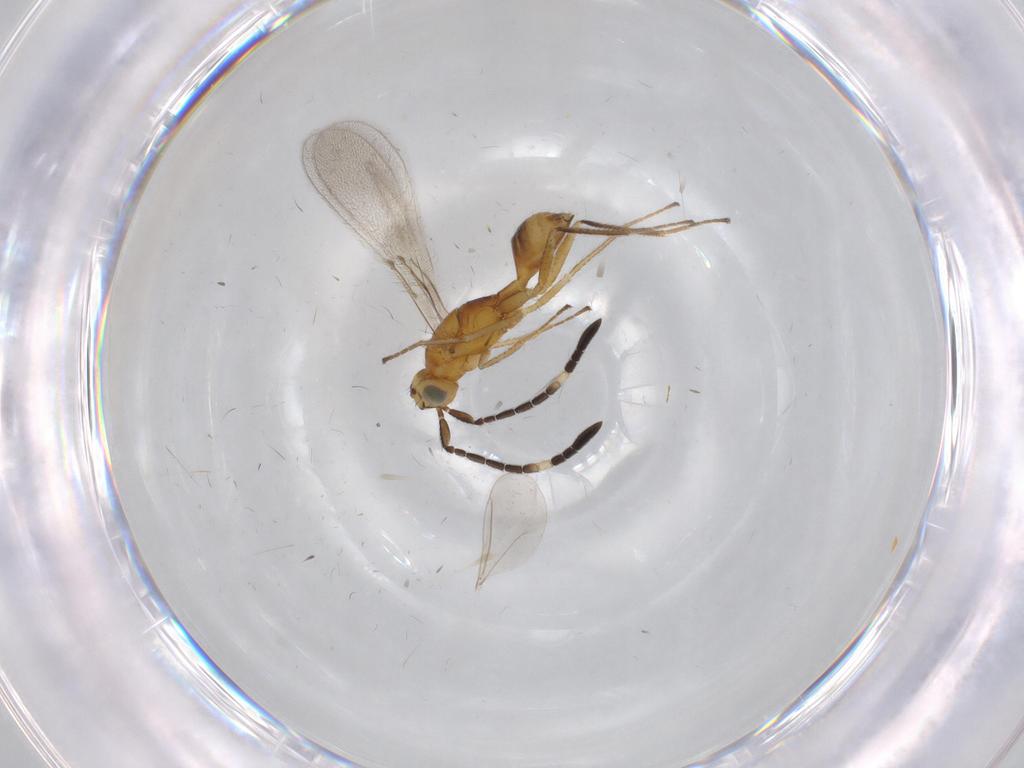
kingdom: Animalia
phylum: Arthropoda
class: Insecta
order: Hymenoptera
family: Mymaridae
